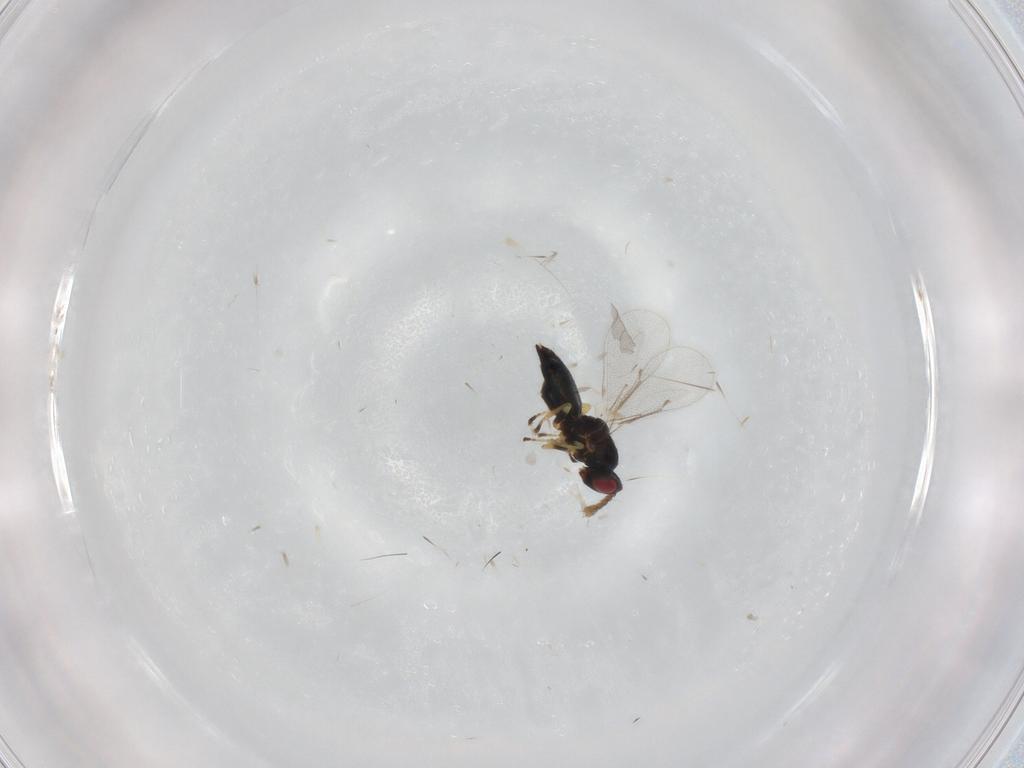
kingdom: Animalia
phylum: Arthropoda
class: Insecta
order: Hymenoptera
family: Eulophidae
